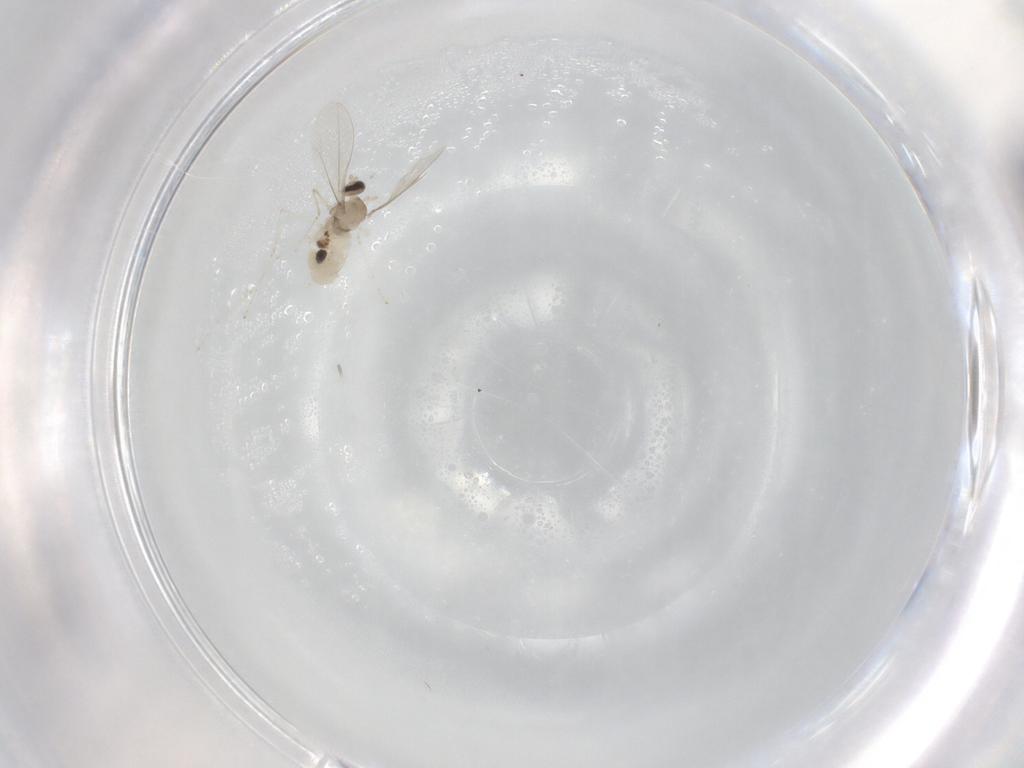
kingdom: Animalia
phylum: Arthropoda
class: Insecta
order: Diptera
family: Cecidomyiidae
